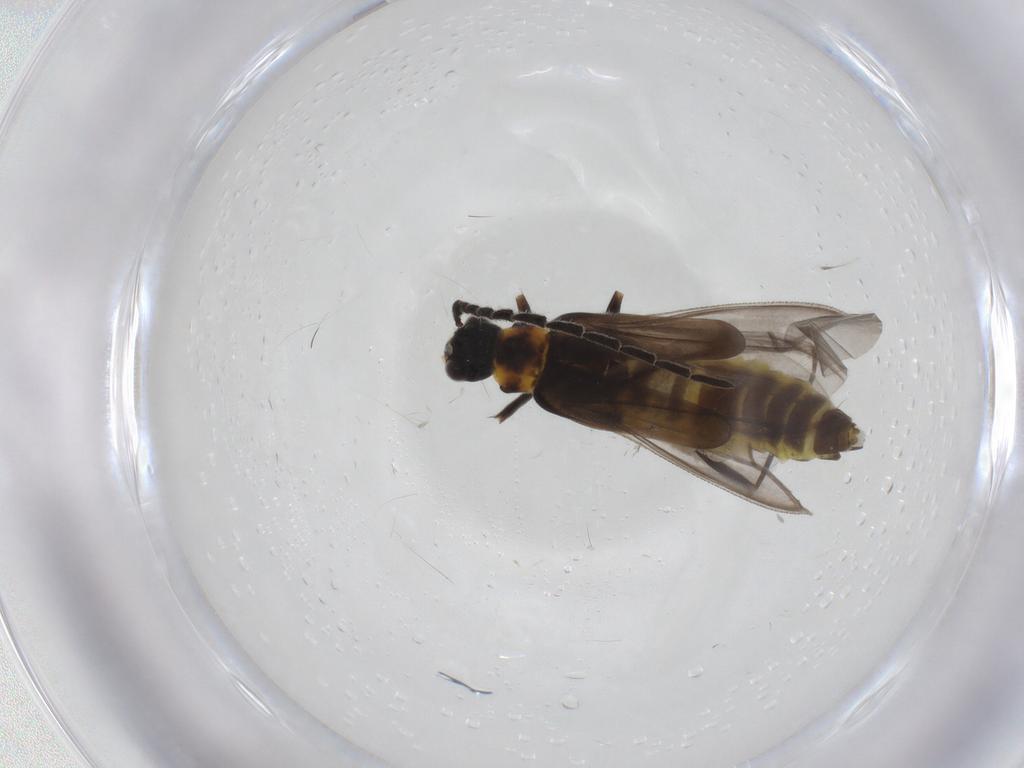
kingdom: Animalia
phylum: Arthropoda
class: Insecta
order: Coleoptera
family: Cantharidae
